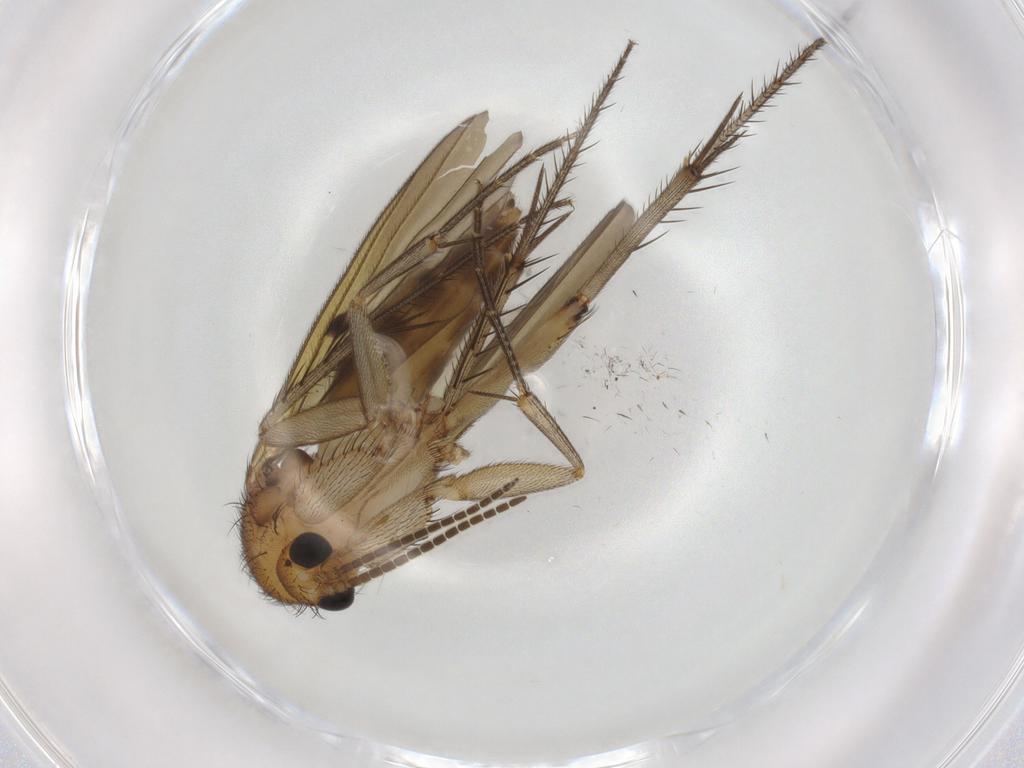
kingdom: Animalia
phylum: Arthropoda
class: Insecta
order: Diptera
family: Mycetophilidae
